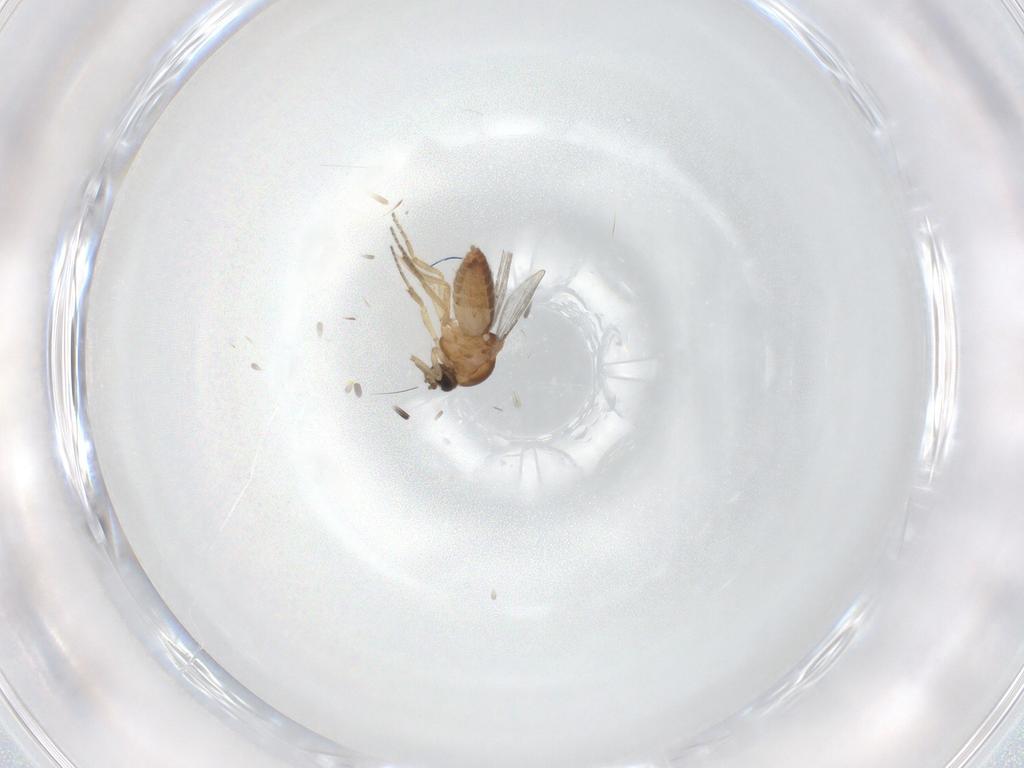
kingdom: Animalia
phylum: Arthropoda
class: Insecta
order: Diptera
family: Ceratopogonidae
